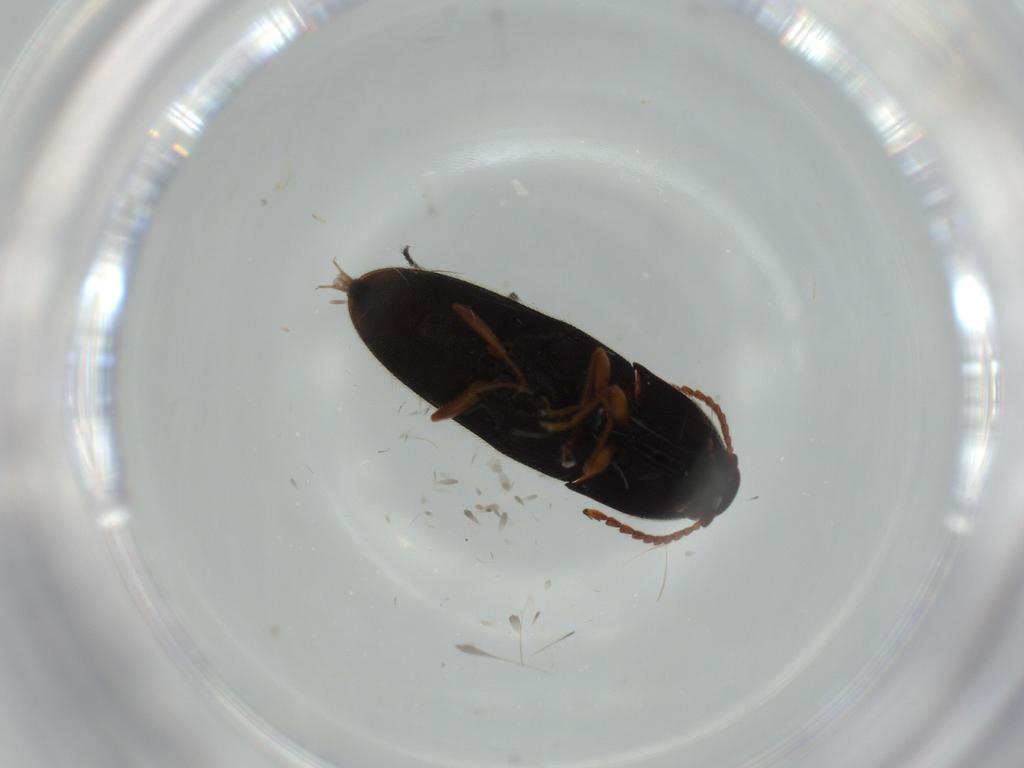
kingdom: Animalia
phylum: Arthropoda
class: Insecta
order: Coleoptera
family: Elateridae
